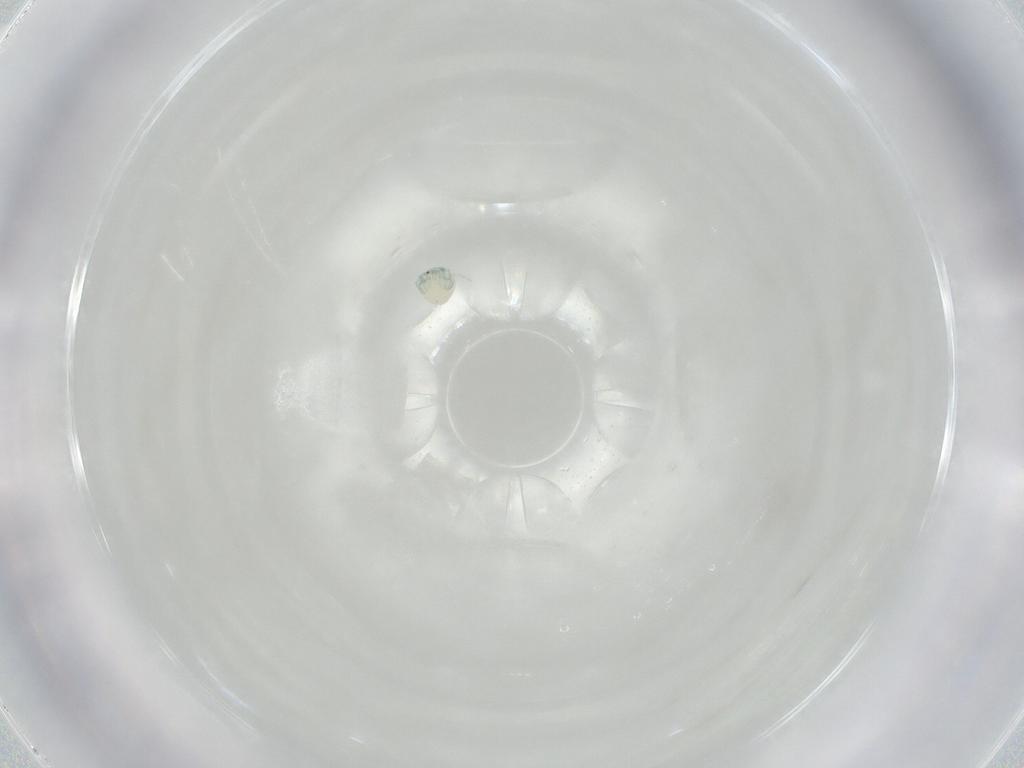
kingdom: Animalia
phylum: Arthropoda
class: Arachnida
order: Trombidiformes
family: Arrenuridae
